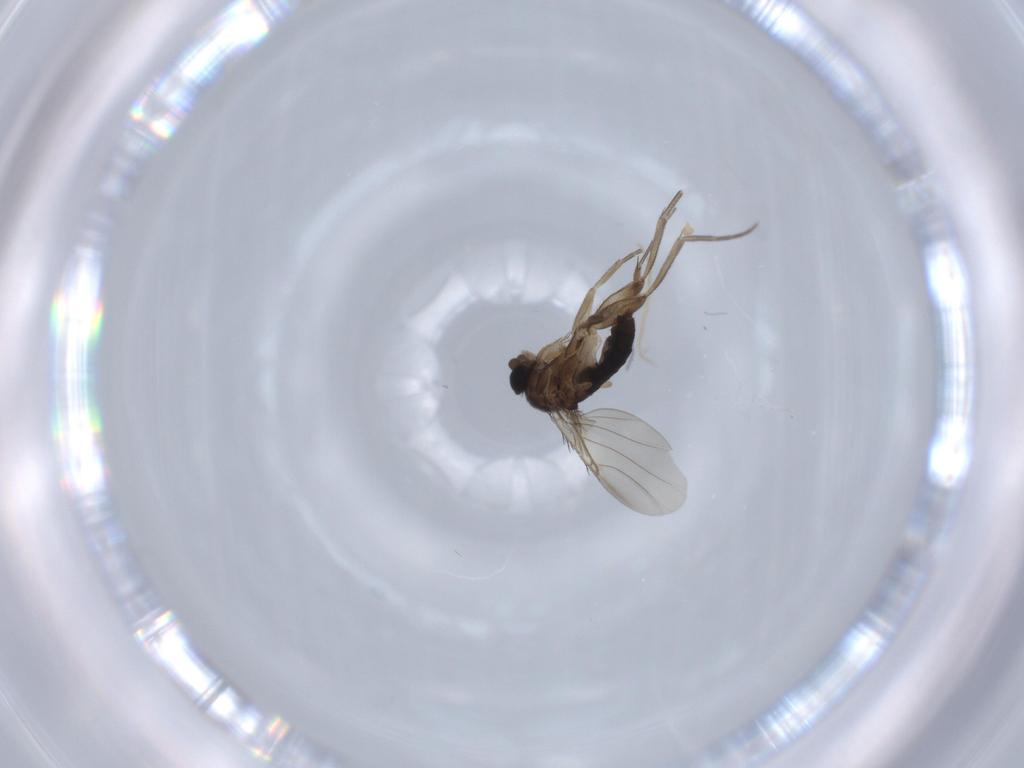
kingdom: Animalia
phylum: Arthropoda
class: Insecta
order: Diptera
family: Phoridae
